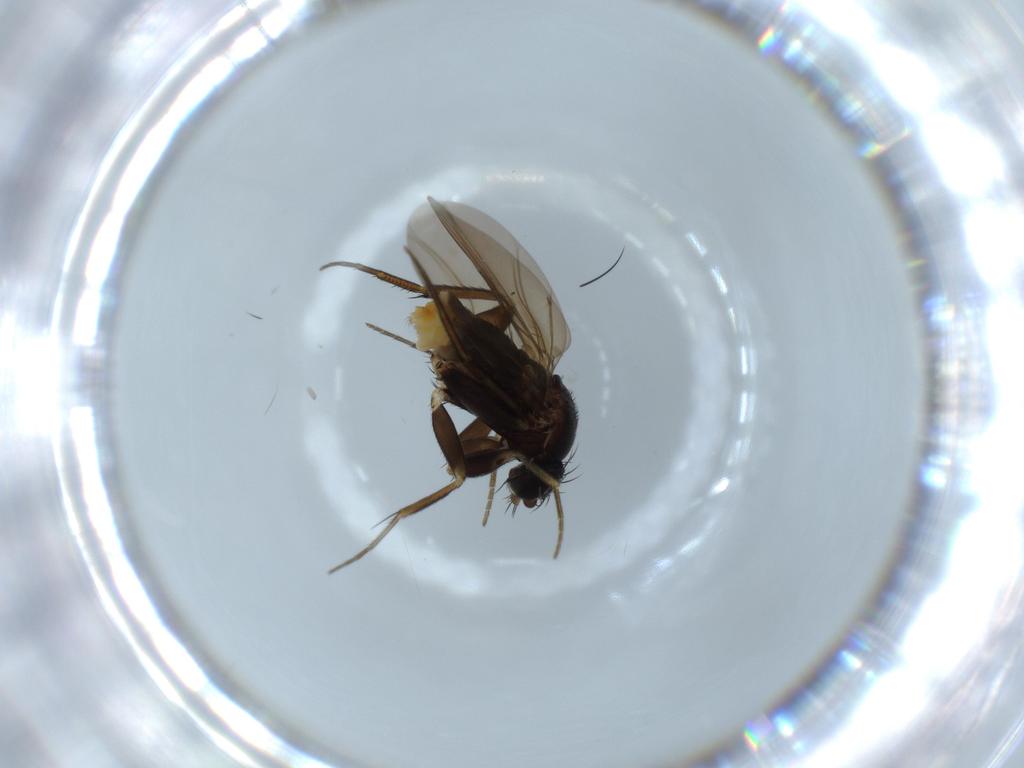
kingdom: Animalia
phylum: Arthropoda
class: Insecta
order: Diptera
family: Phoridae
